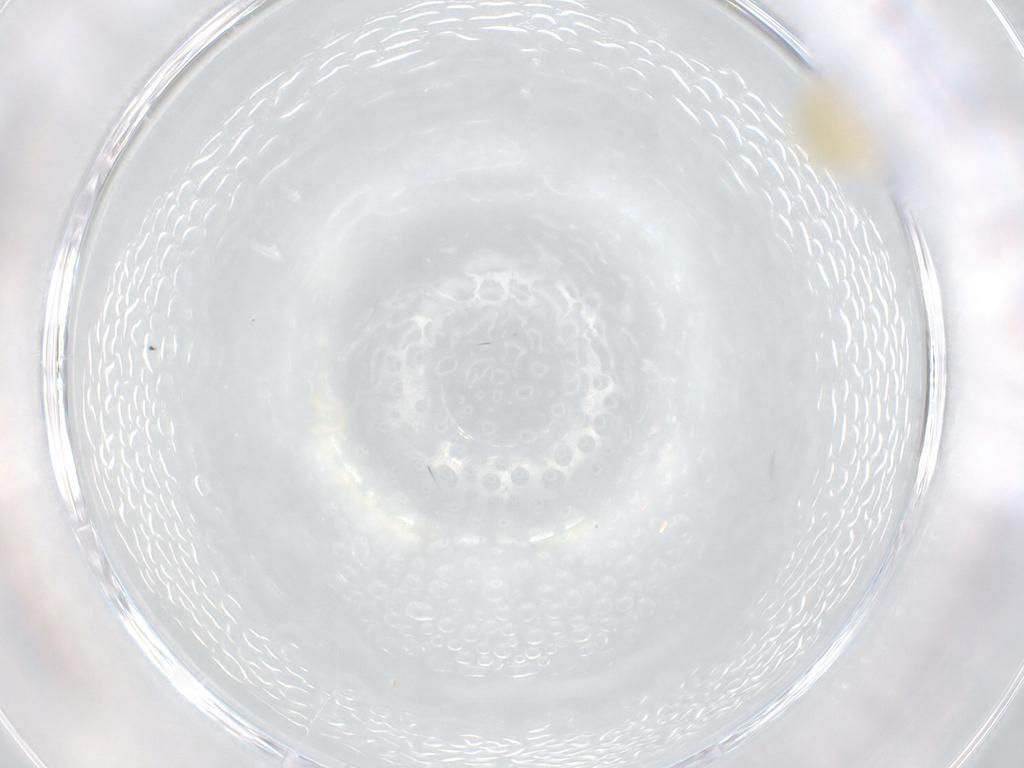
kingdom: Animalia
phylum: Arthropoda
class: Arachnida
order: Trombidiformes
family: Erythraeidae
